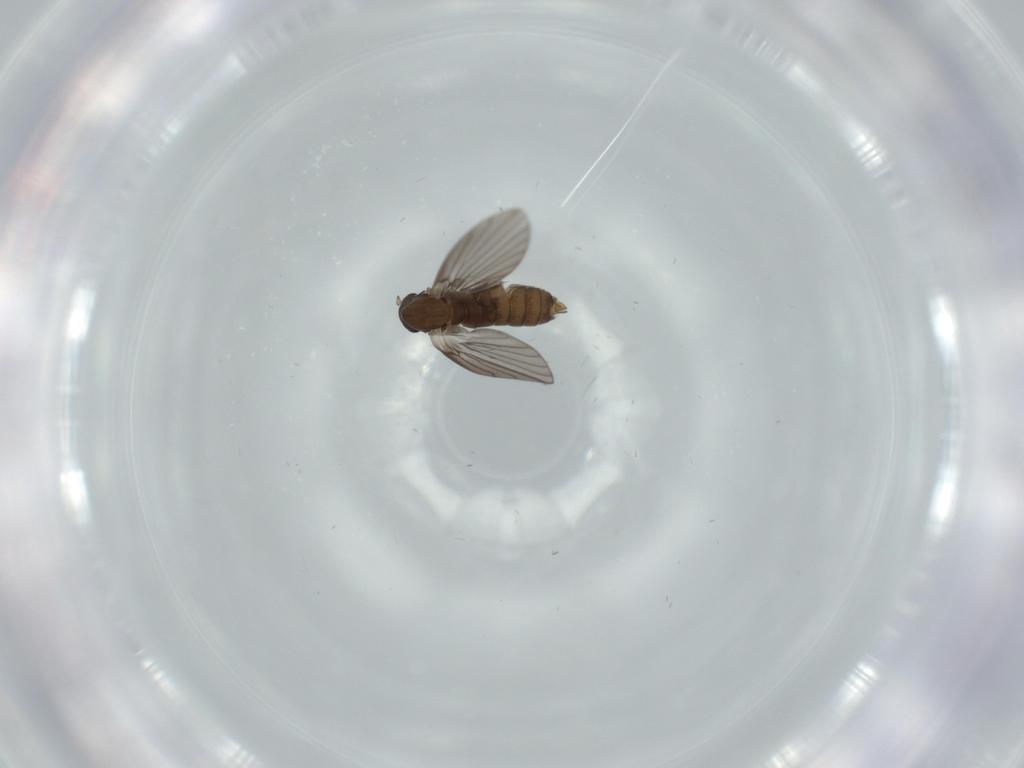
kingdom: Animalia
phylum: Arthropoda
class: Insecta
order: Diptera
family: Psychodidae
